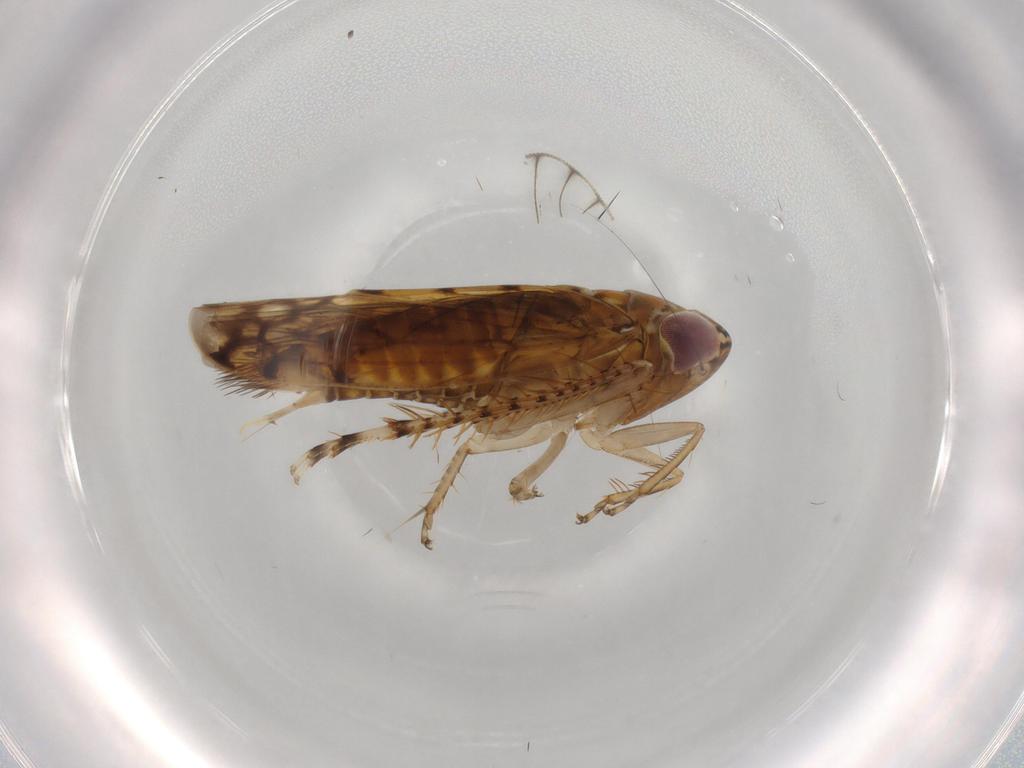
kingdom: Animalia
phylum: Arthropoda
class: Insecta
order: Hemiptera
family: Cicadellidae
